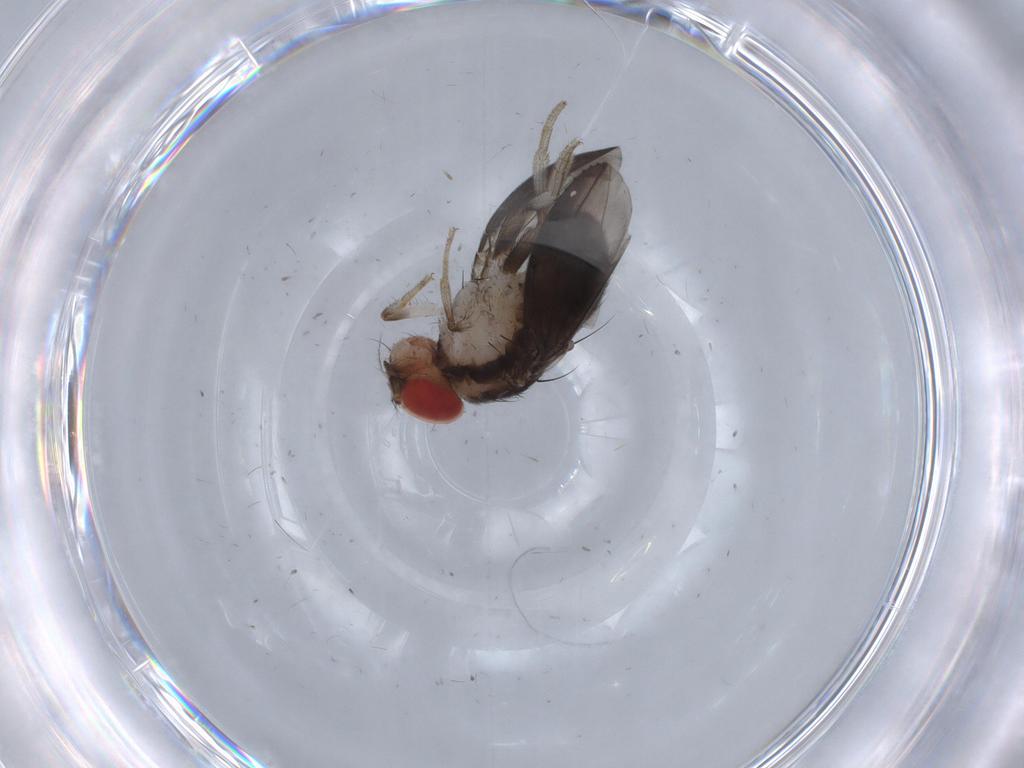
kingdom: Animalia
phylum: Arthropoda
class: Insecta
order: Diptera
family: Drosophilidae
